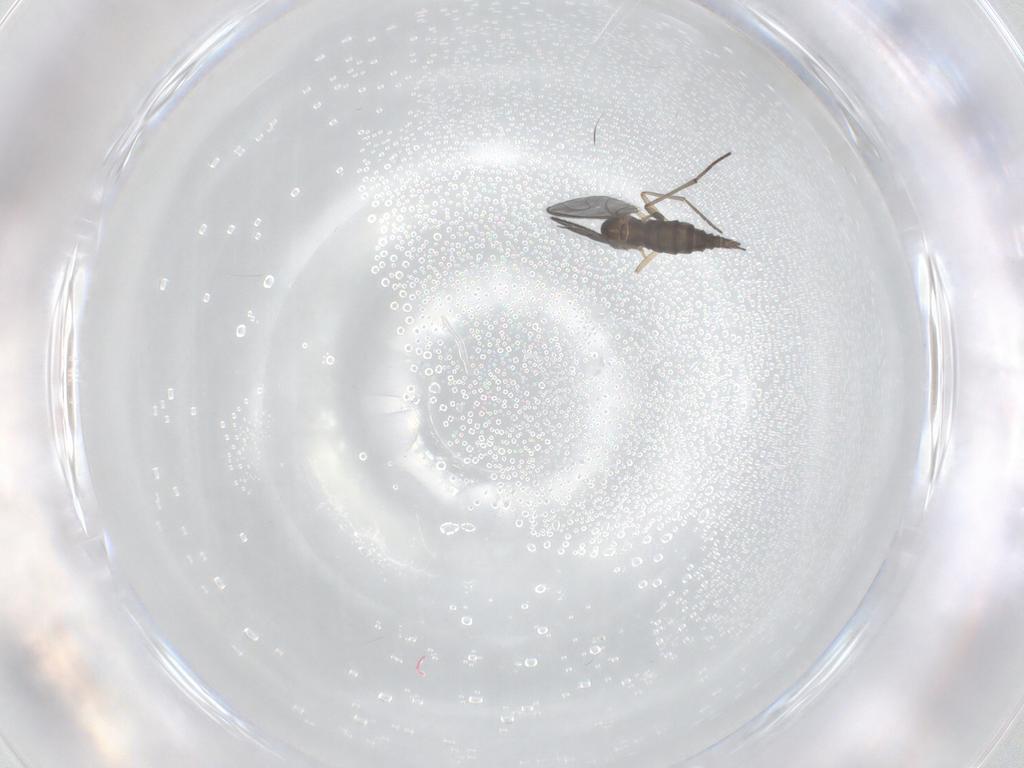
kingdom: Animalia
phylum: Arthropoda
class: Insecta
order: Diptera
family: Sciaridae
